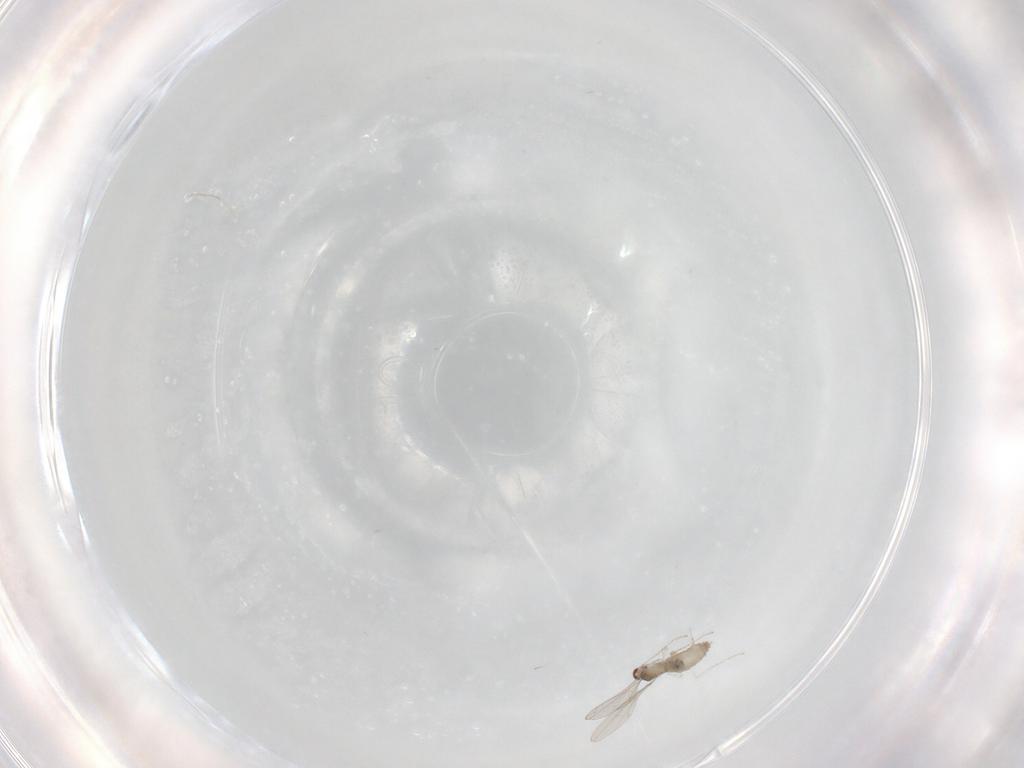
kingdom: Animalia
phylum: Arthropoda
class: Insecta
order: Diptera
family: Cecidomyiidae
